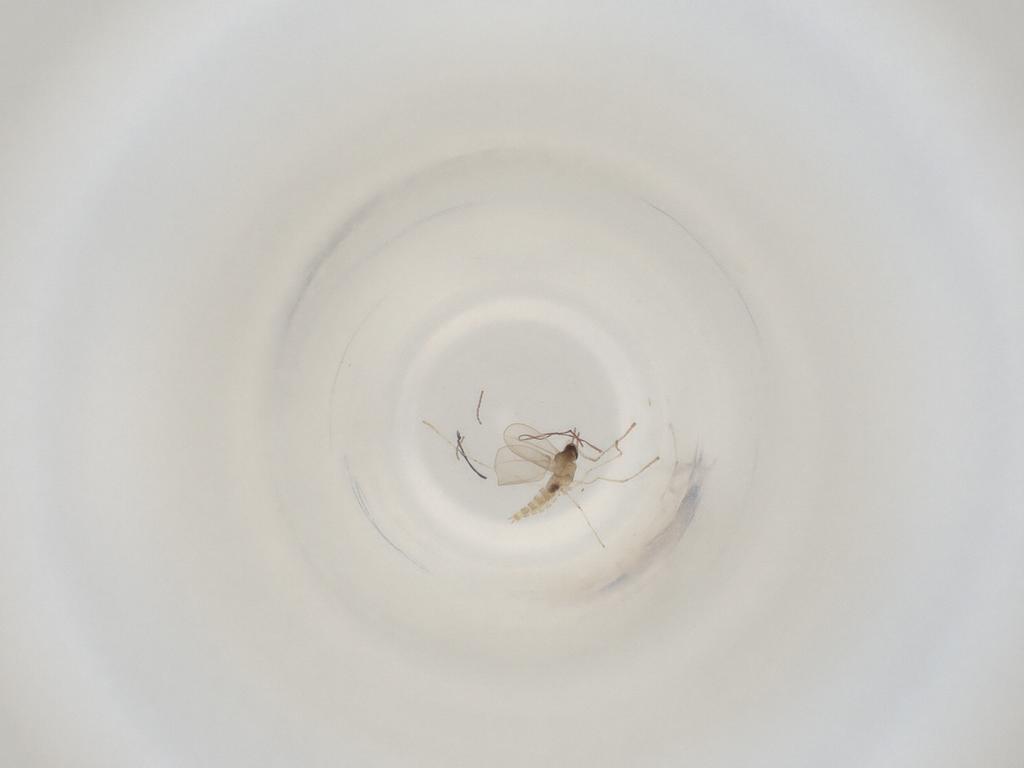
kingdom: Animalia
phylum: Arthropoda
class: Insecta
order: Diptera
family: Cecidomyiidae
